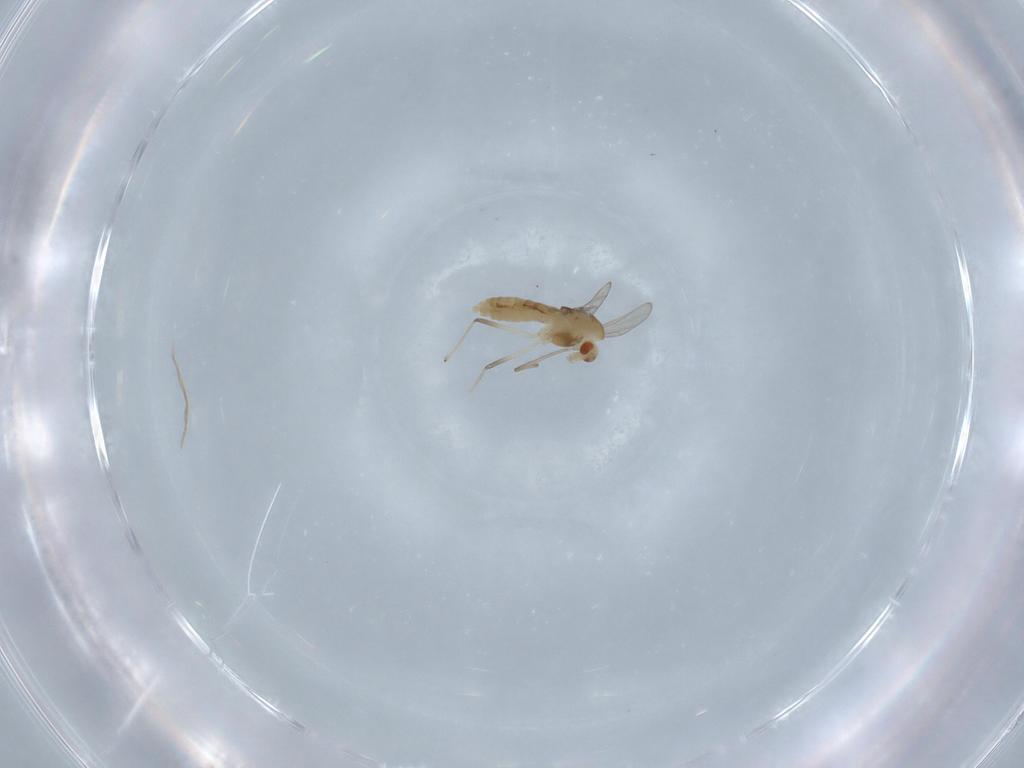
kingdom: Animalia
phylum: Arthropoda
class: Insecta
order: Diptera
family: Chironomidae
